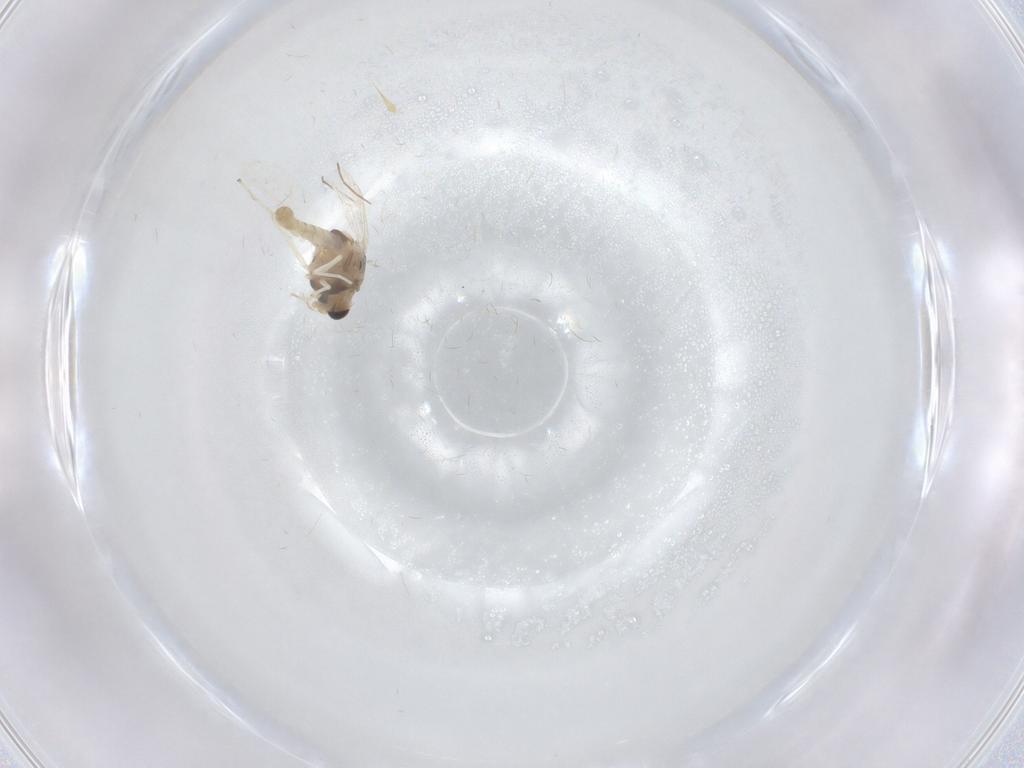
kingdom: Animalia
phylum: Arthropoda
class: Insecta
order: Diptera
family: Chironomidae
